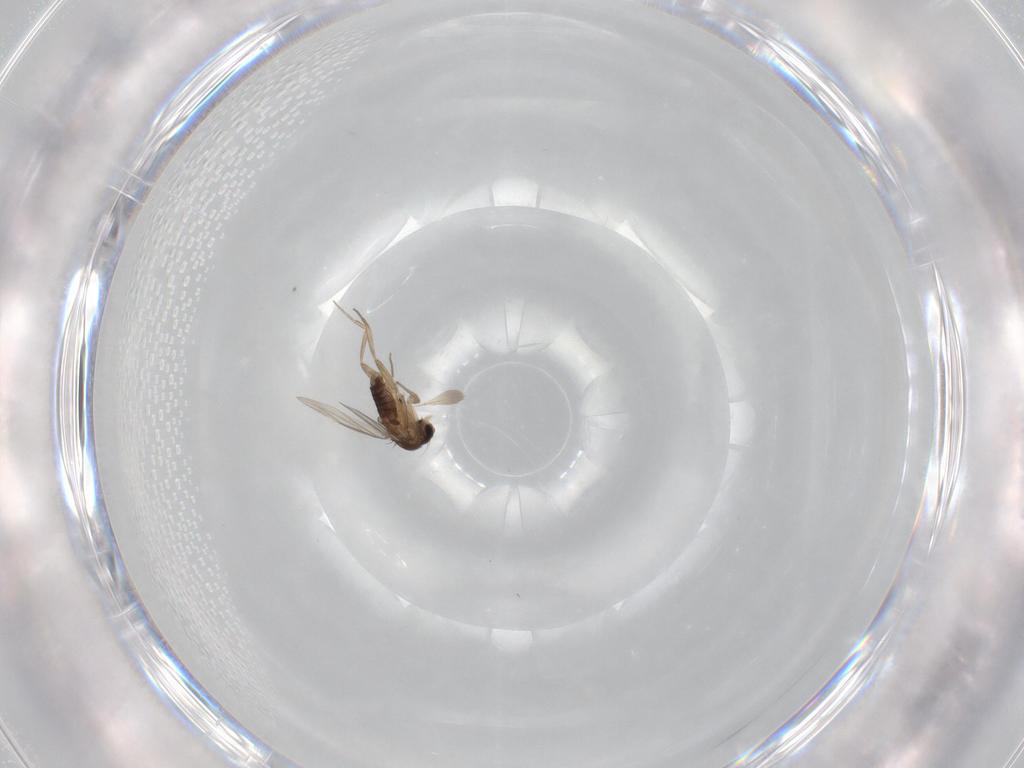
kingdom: Animalia
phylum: Arthropoda
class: Insecta
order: Diptera
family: Phoridae
